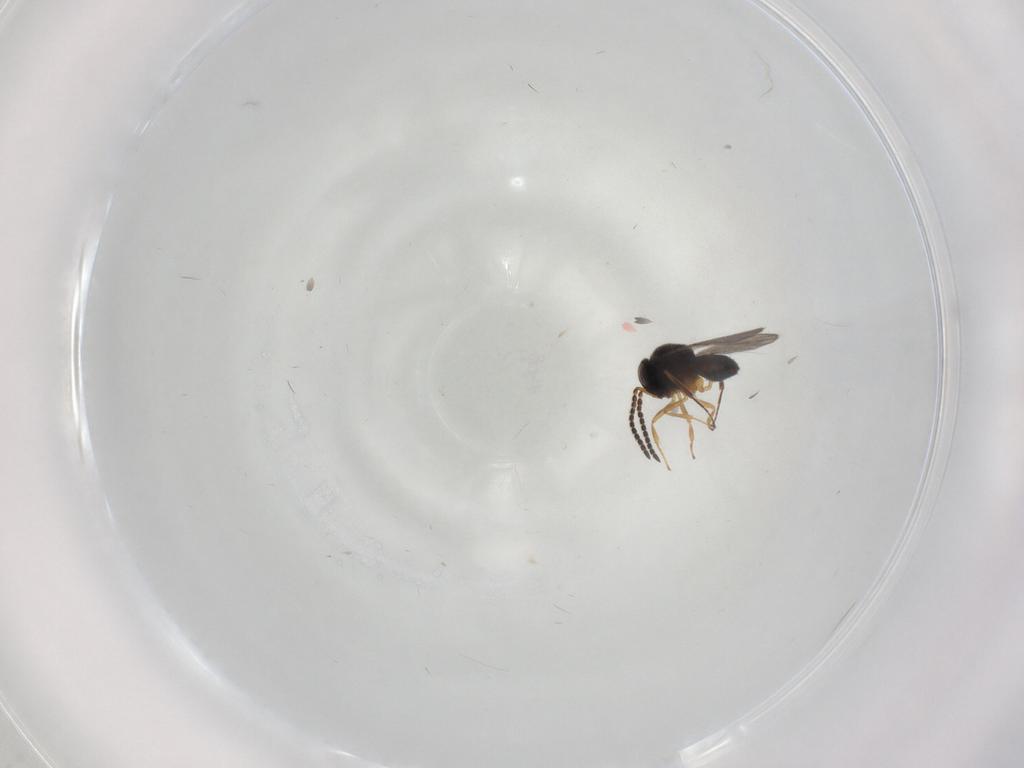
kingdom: Animalia
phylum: Arthropoda
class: Insecta
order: Hymenoptera
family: Scelionidae
